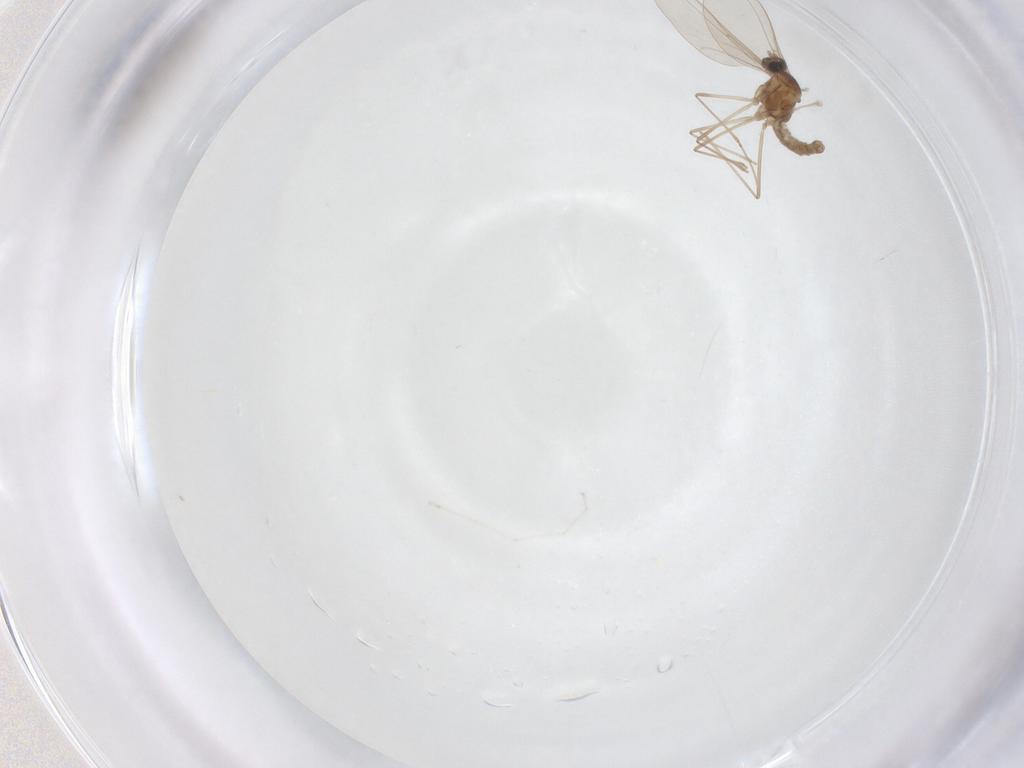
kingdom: Animalia
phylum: Arthropoda
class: Insecta
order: Diptera
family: Cecidomyiidae
